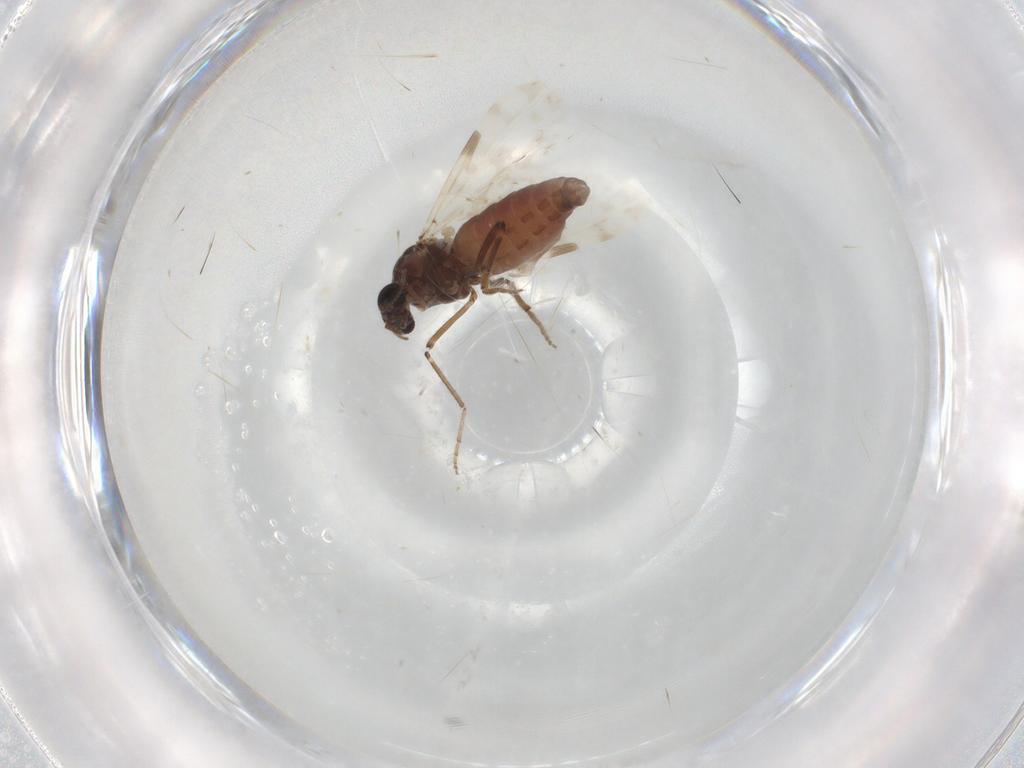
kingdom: Animalia
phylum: Arthropoda
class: Insecta
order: Diptera
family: Ceratopogonidae
